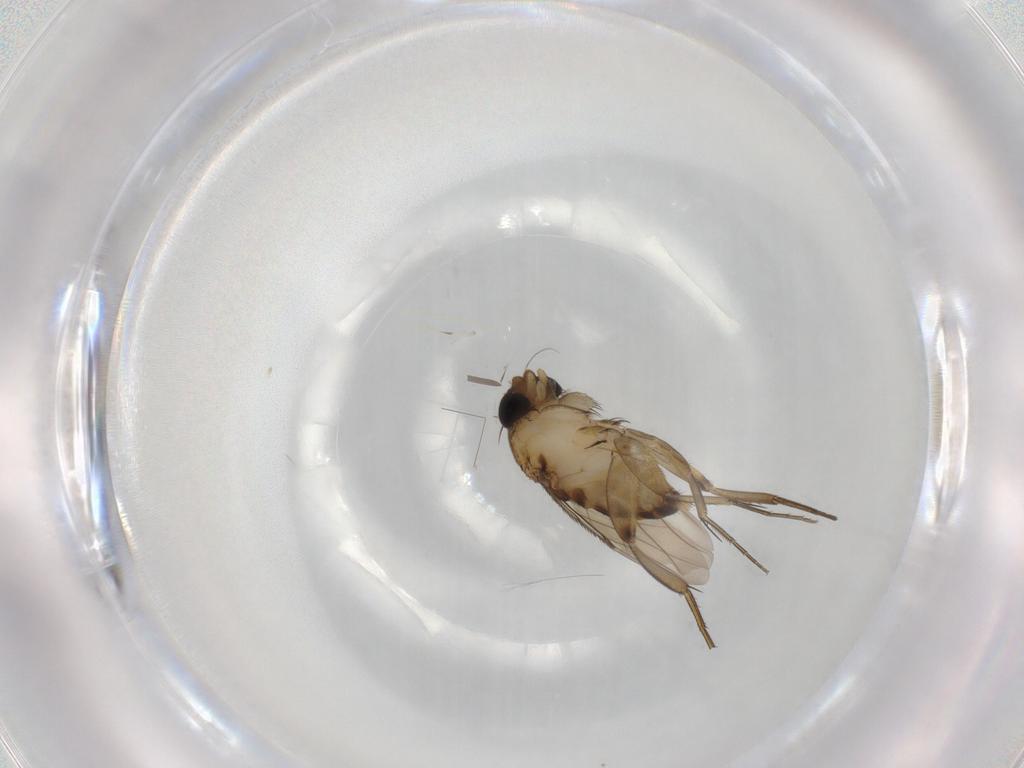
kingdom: Animalia
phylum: Arthropoda
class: Insecta
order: Diptera
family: Phoridae
